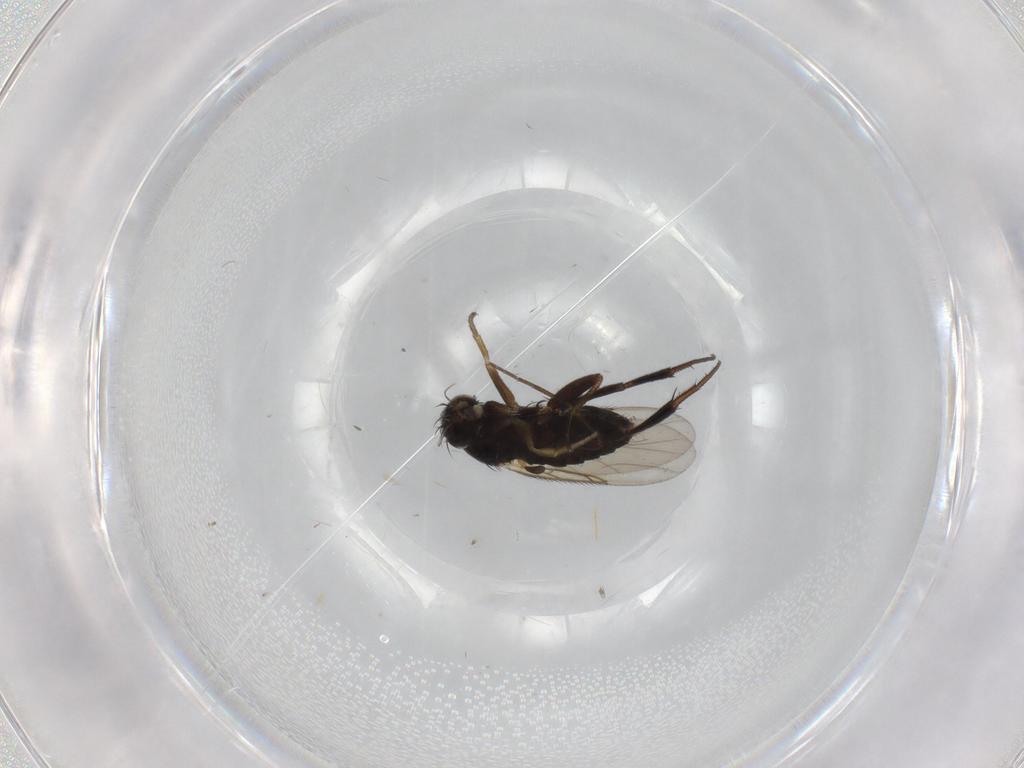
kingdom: Animalia
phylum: Arthropoda
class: Insecta
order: Diptera
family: Phoridae
